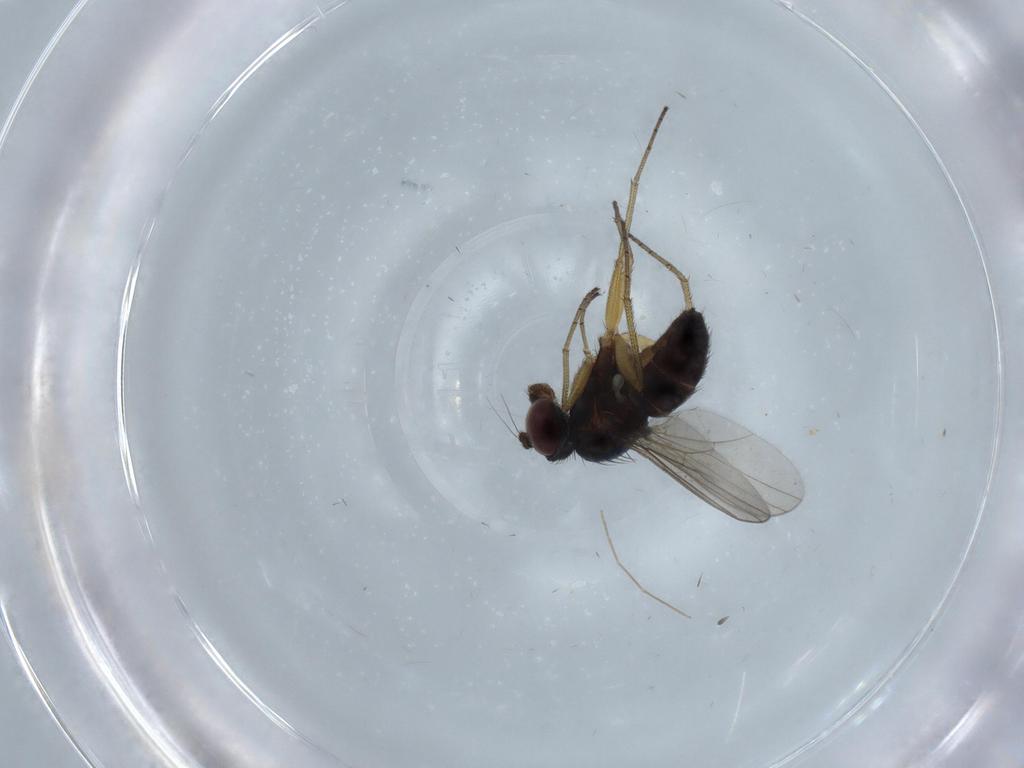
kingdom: Animalia
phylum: Arthropoda
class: Insecta
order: Diptera
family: Dolichopodidae
